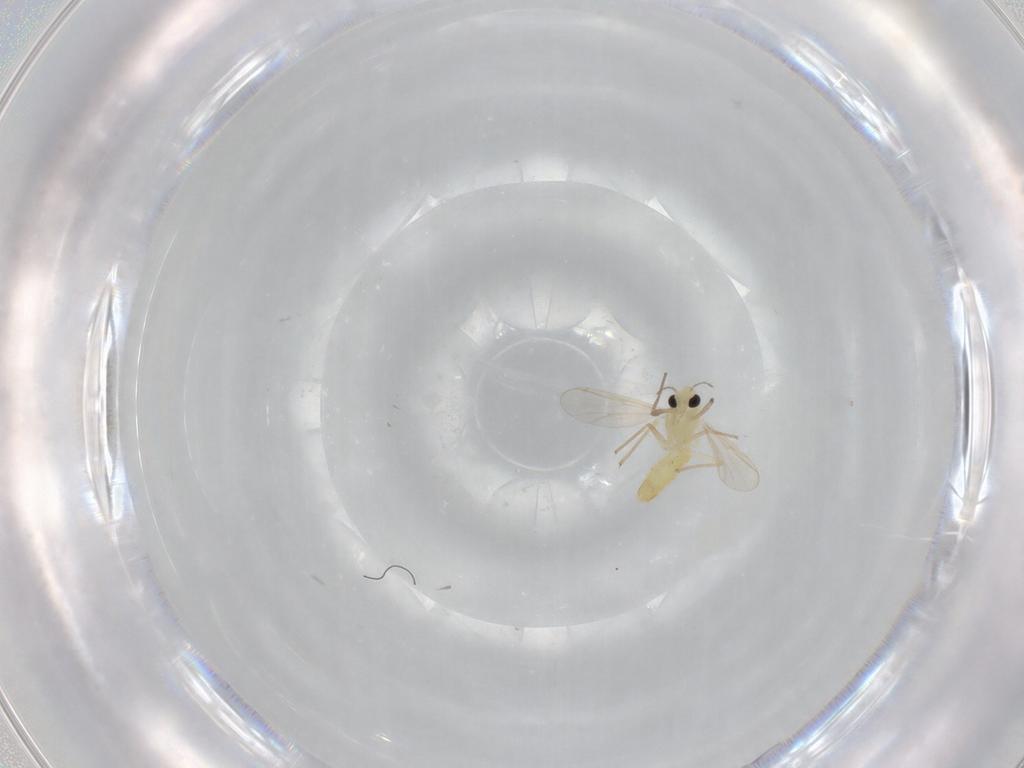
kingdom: Animalia
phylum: Arthropoda
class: Insecta
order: Diptera
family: Chironomidae
